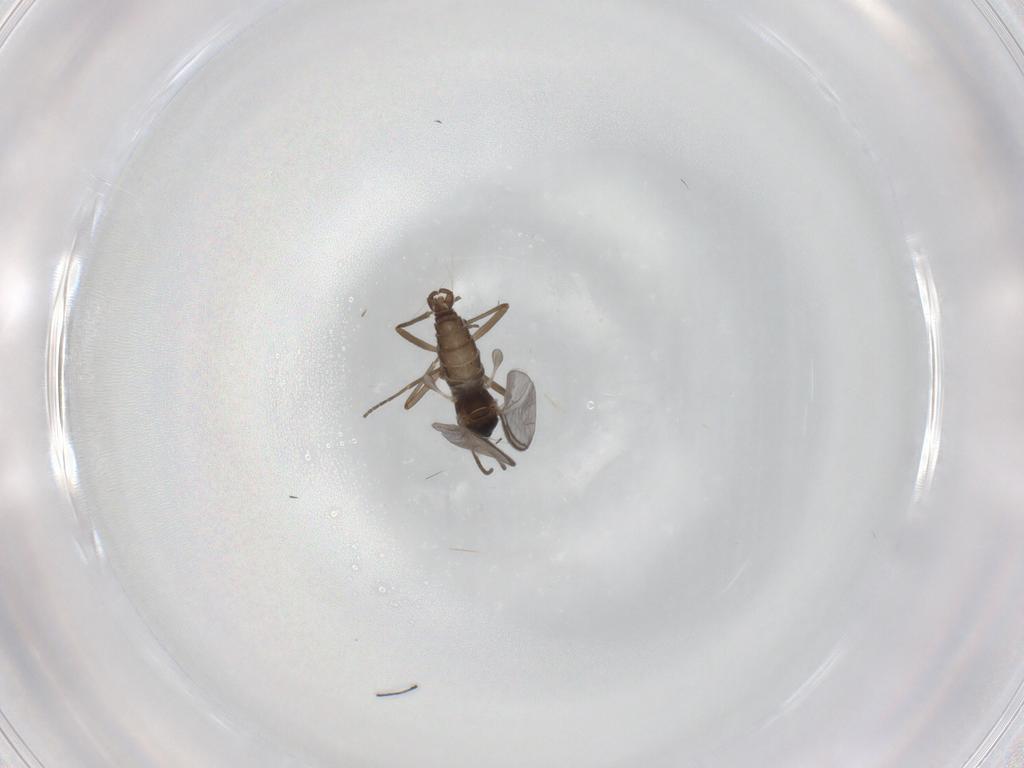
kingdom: Animalia
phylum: Arthropoda
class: Insecta
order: Diptera
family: Sciaridae
